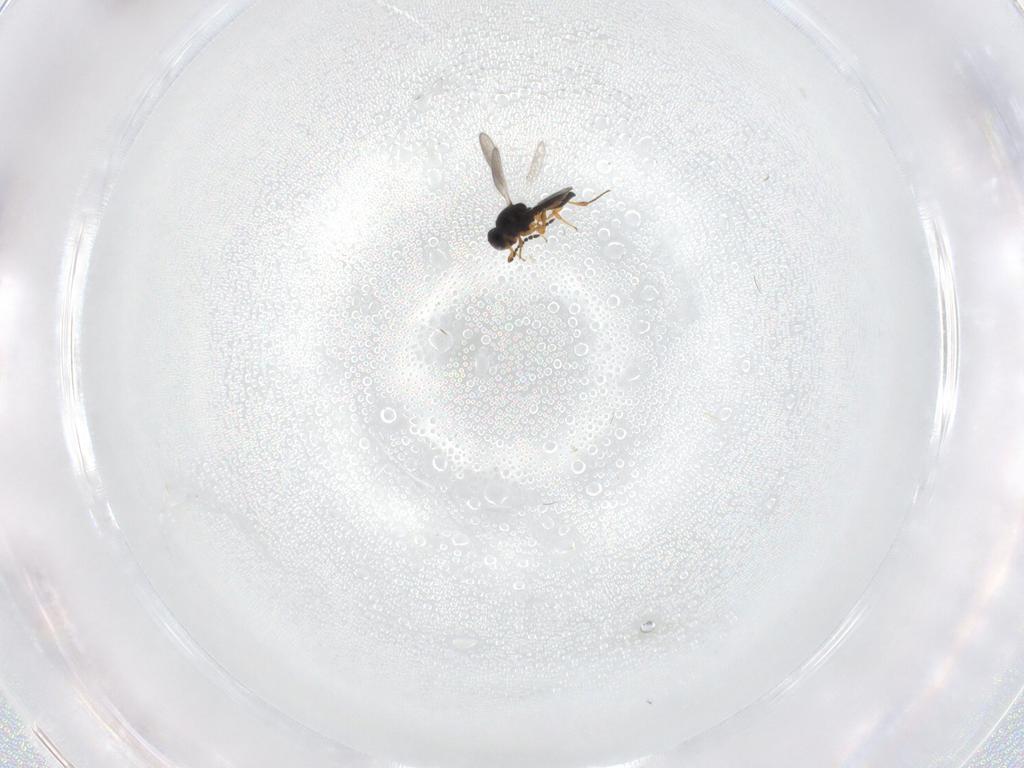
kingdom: Animalia
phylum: Arthropoda
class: Insecta
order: Hymenoptera
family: Platygastridae
